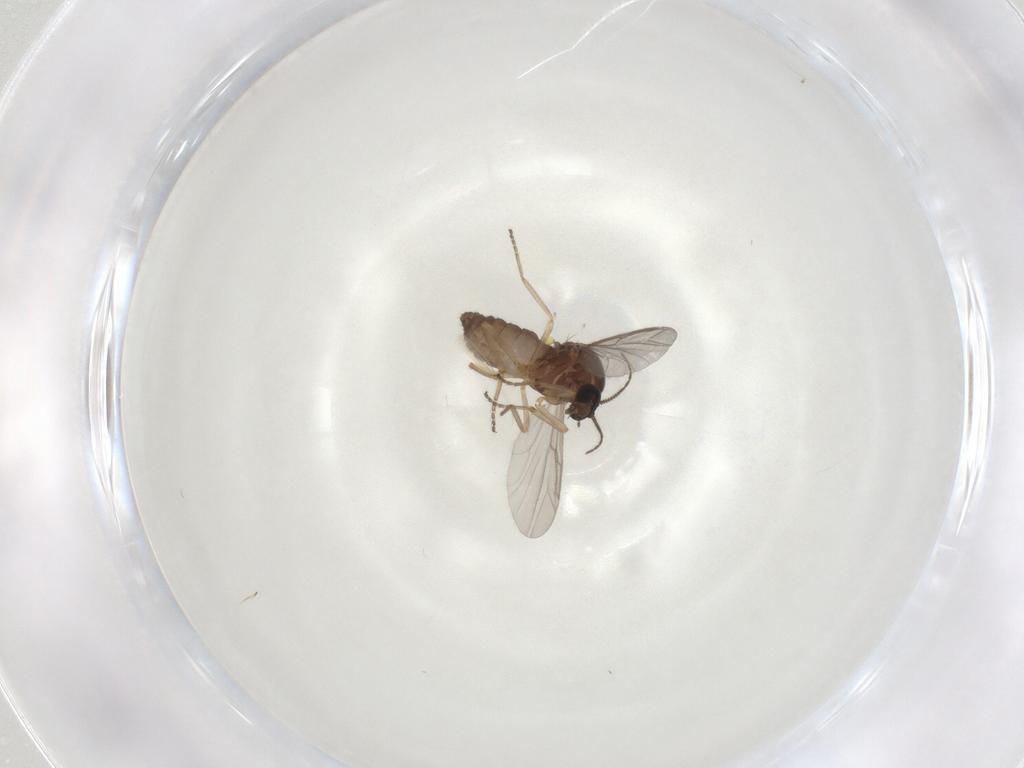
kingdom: Animalia
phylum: Arthropoda
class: Insecta
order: Diptera
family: Ceratopogonidae
